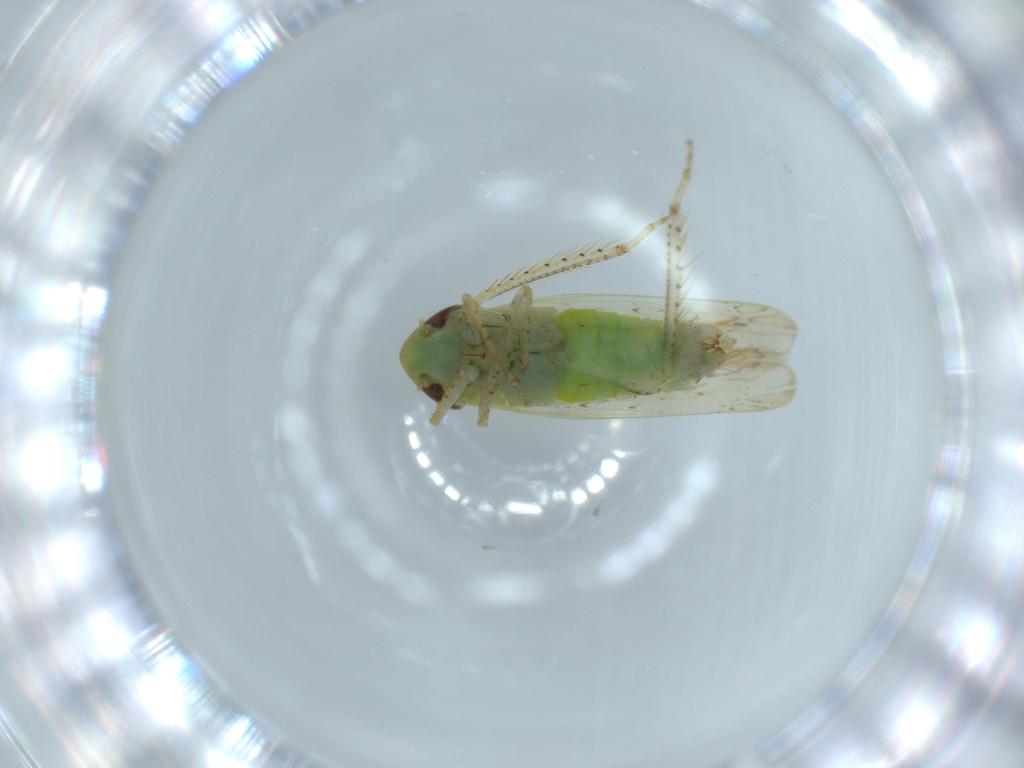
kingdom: Animalia
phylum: Arthropoda
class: Insecta
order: Hemiptera
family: Cicadellidae
